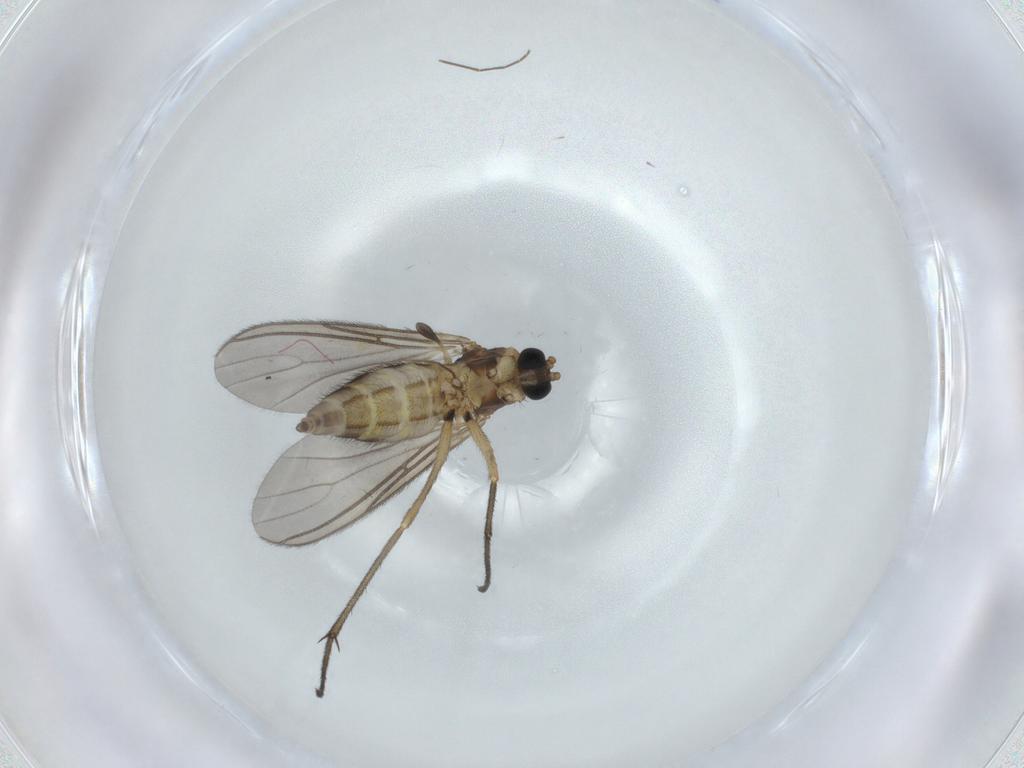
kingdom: Animalia
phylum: Arthropoda
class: Insecta
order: Diptera
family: Sciaridae
